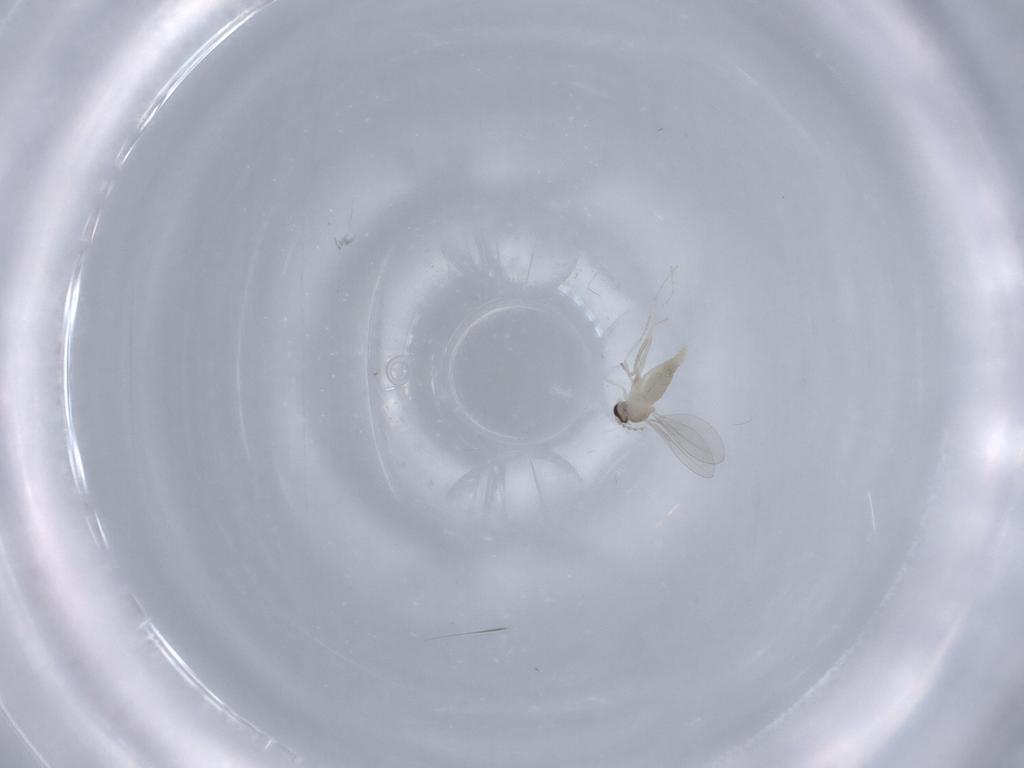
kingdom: Animalia
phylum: Arthropoda
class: Insecta
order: Diptera
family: Cecidomyiidae
